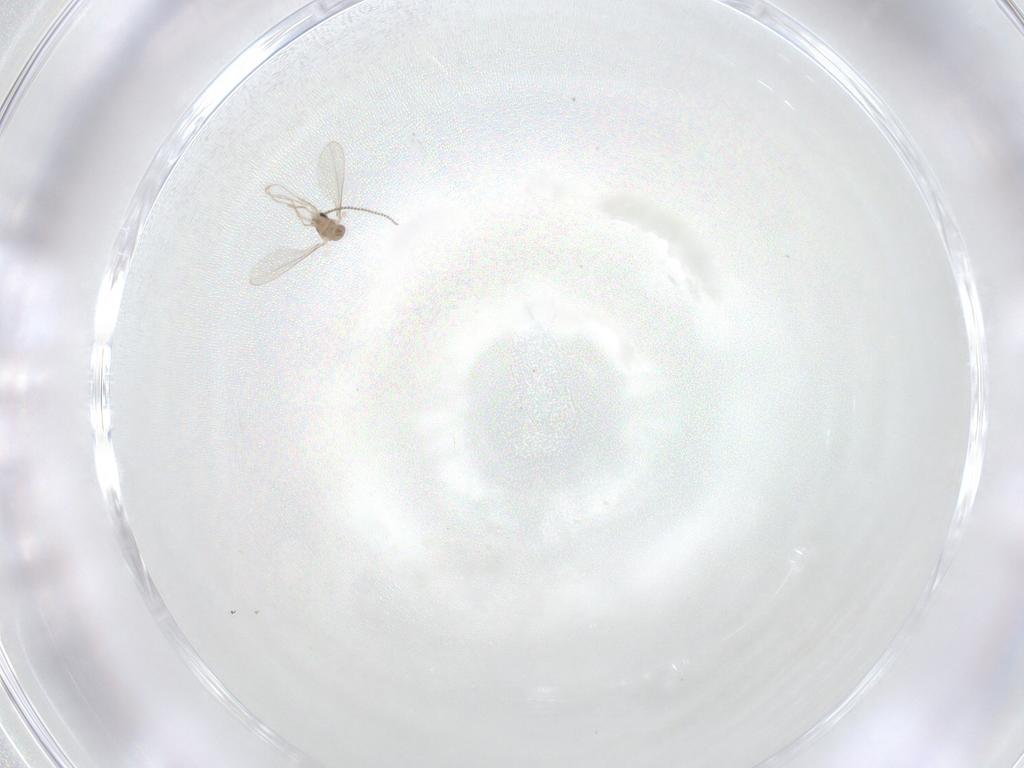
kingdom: Animalia
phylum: Arthropoda
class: Insecta
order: Diptera
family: Cecidomyiidae
